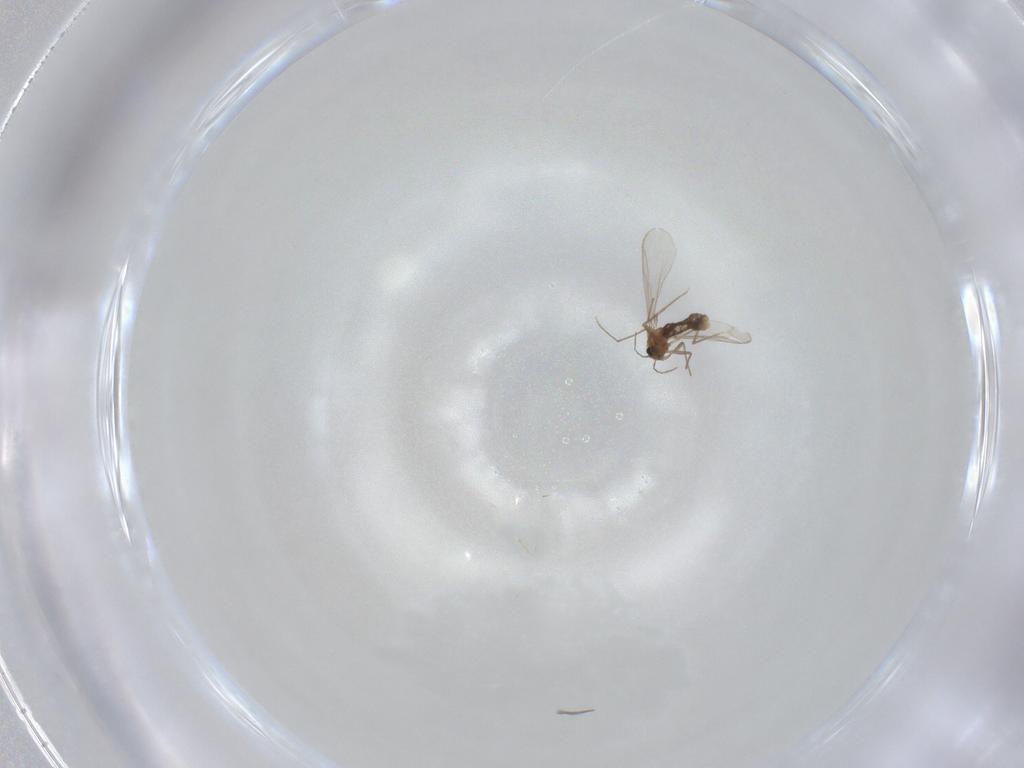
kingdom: Animalia
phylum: Arthropoda
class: Insecta
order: Diptera
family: Chironomidae
